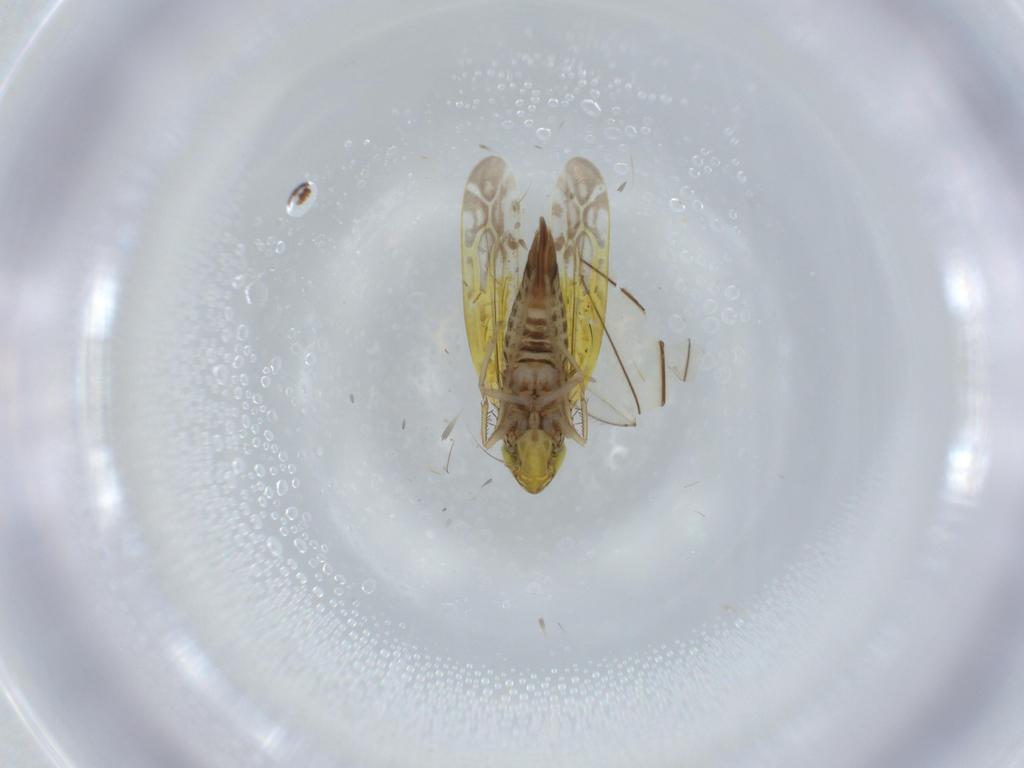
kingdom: Animalia
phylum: Arthropoda
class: Insecta
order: Hemiptera
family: Cicadellidae
